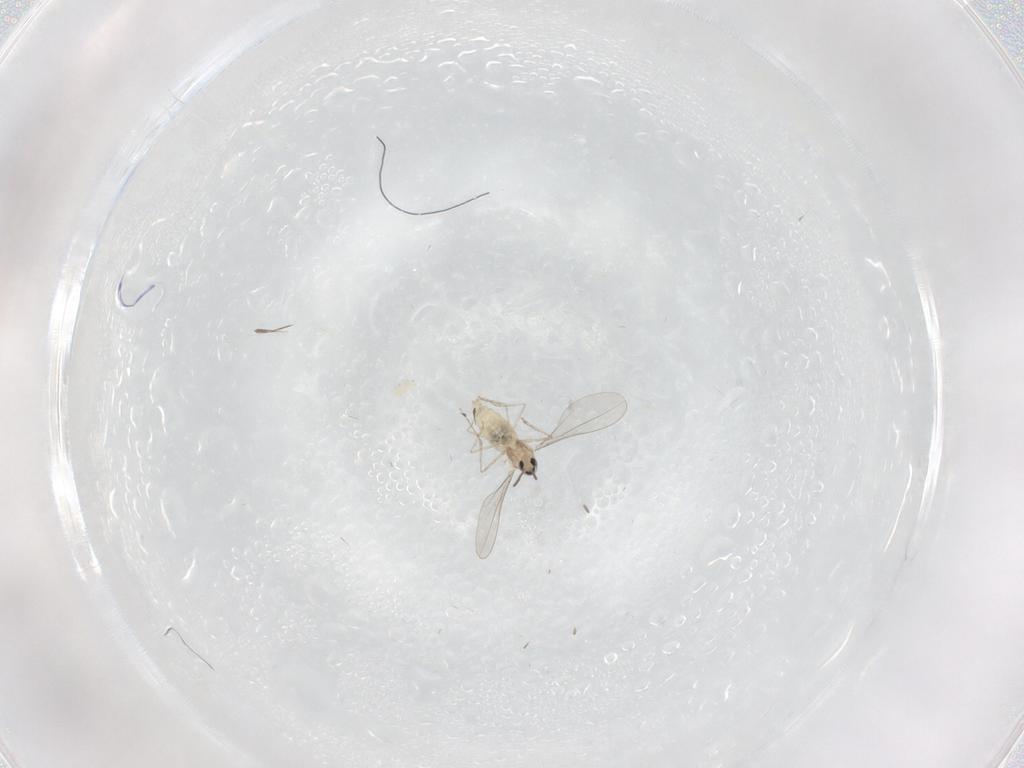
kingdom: Animalia
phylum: Arthropoda
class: Insecta
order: Diptera
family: Cecidomyiidae
